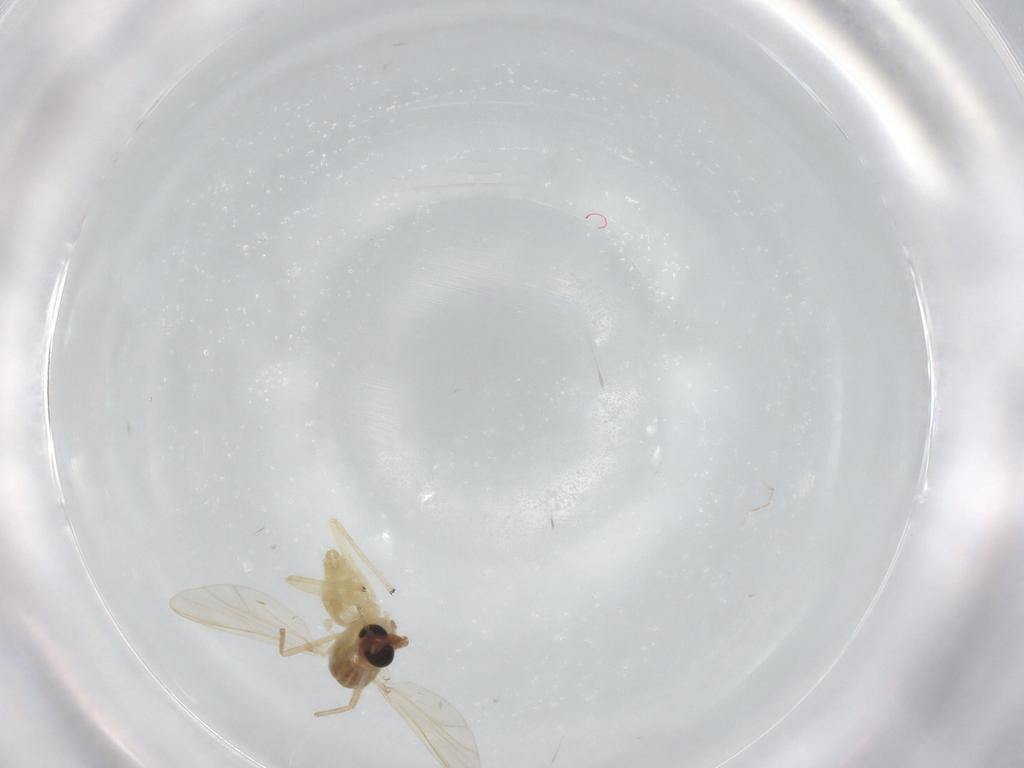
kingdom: Animalia
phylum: Arthropoda
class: Insecta
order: Diptera
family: Chironomidae
